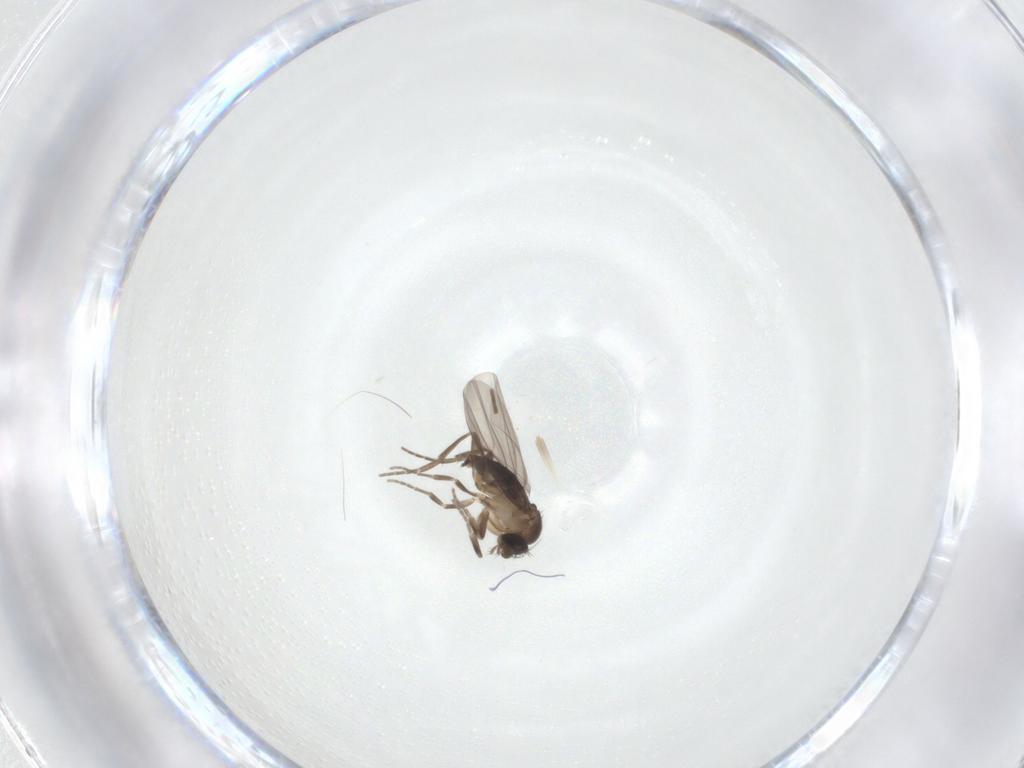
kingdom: Animalia
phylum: Arthropoda
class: Insecta
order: Diptera
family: Phoridae
